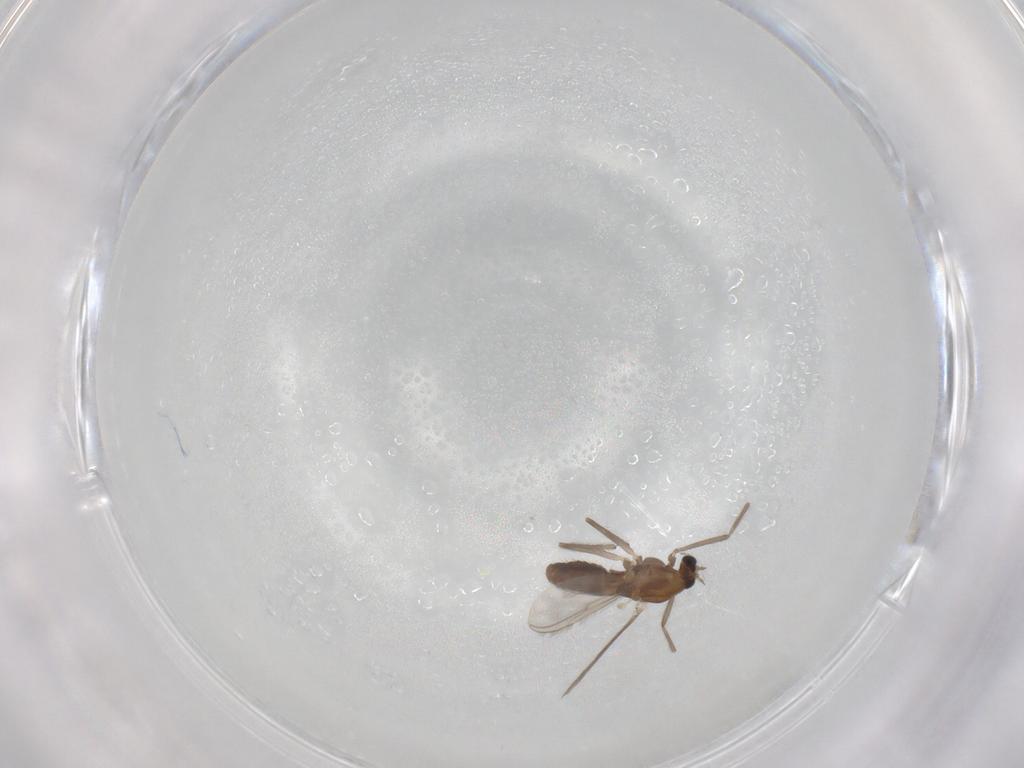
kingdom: Animalia
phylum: Arthropoda
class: Insecta
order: Diptera
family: Chironomidae
